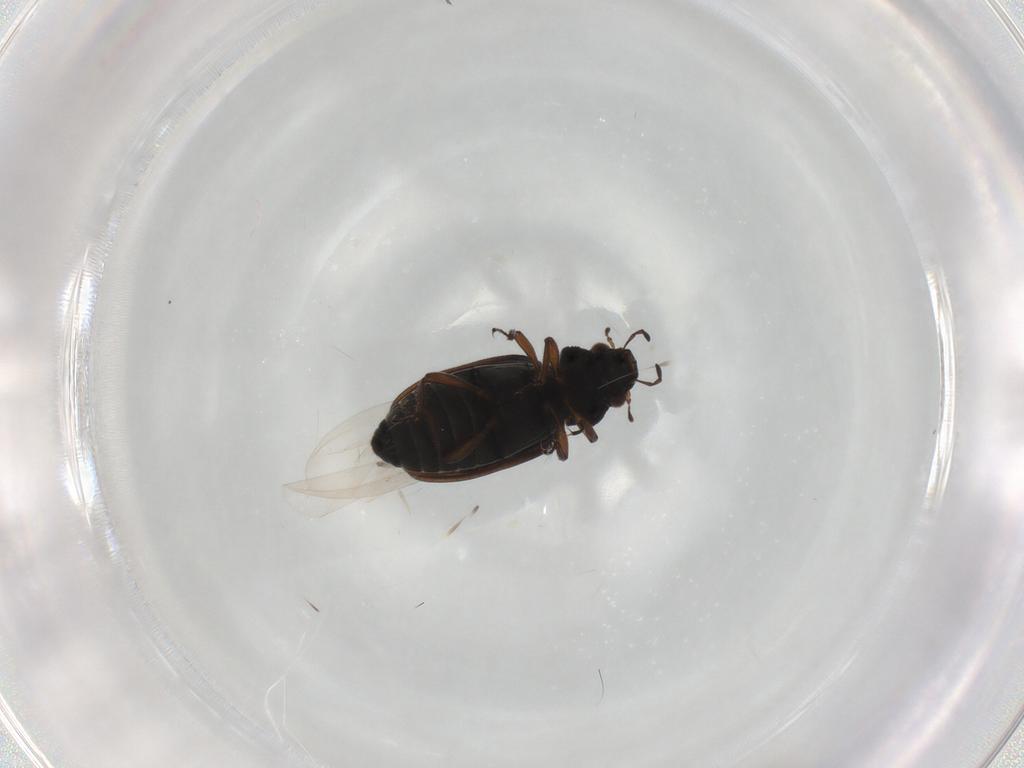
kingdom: Animalia
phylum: Arthropoda
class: Insecta
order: Coleoptera
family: Hydraenidae
